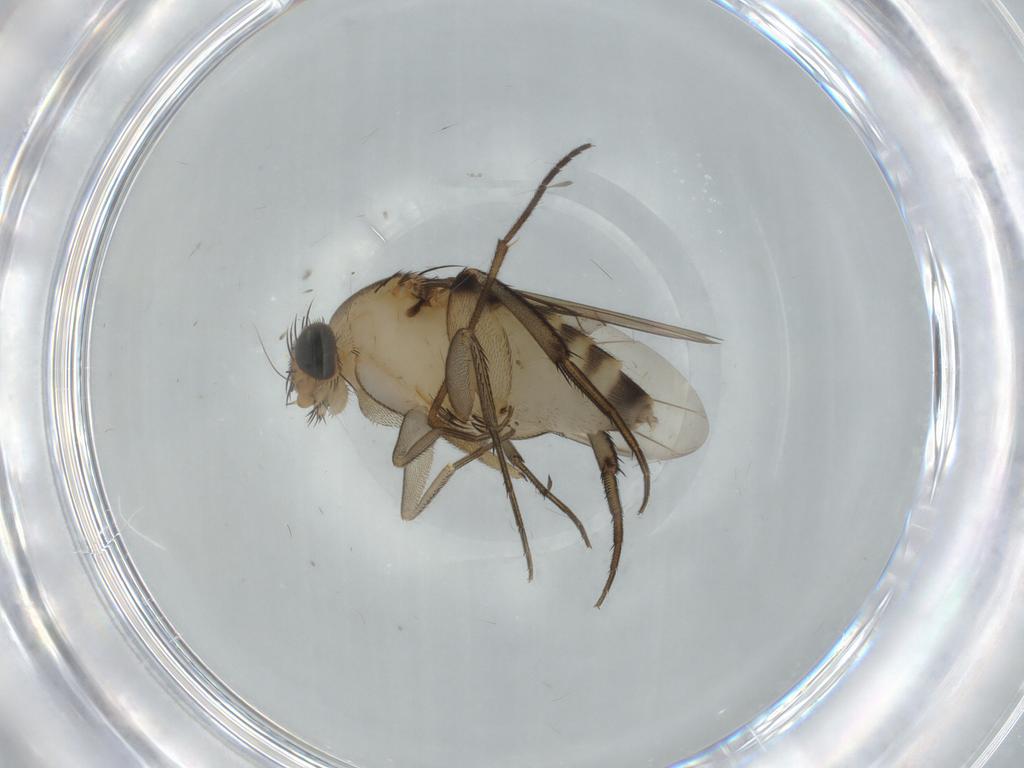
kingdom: Animalia
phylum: Arthropoda
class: Insecta
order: Diptera
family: Phoridae
